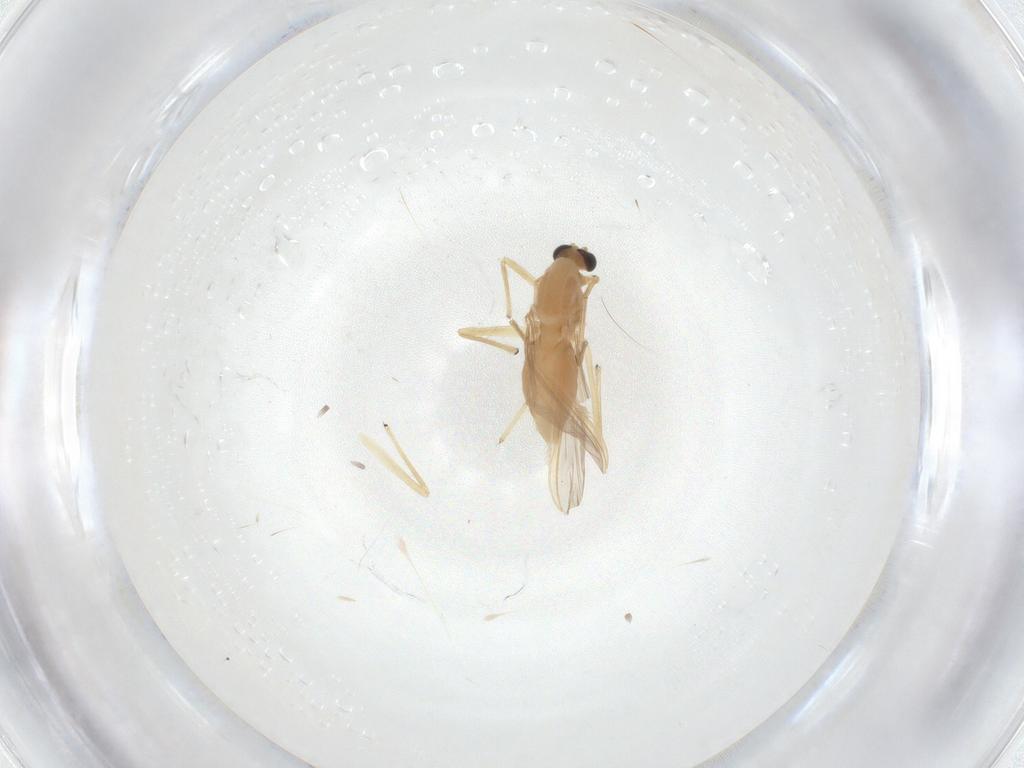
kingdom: Animalia
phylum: Arthropoda
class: Insecta
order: Diptera
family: Chironomidae
